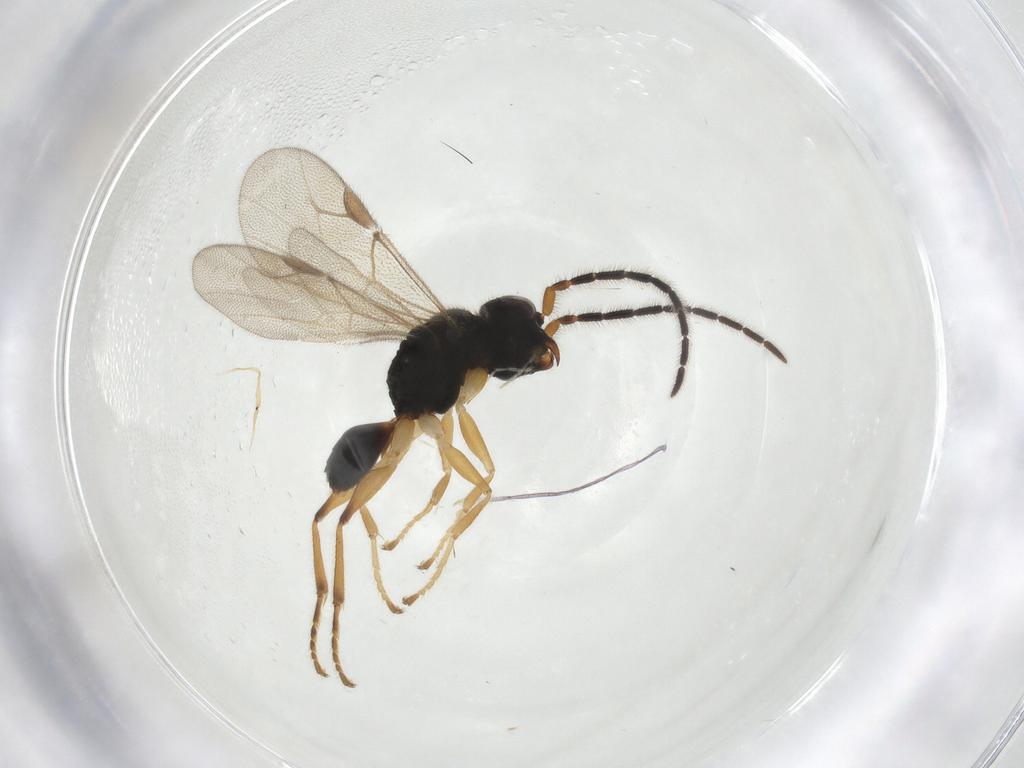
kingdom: Animalia
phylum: Arthropoda
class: Insecta
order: Hymenoptera
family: Dryinidae
